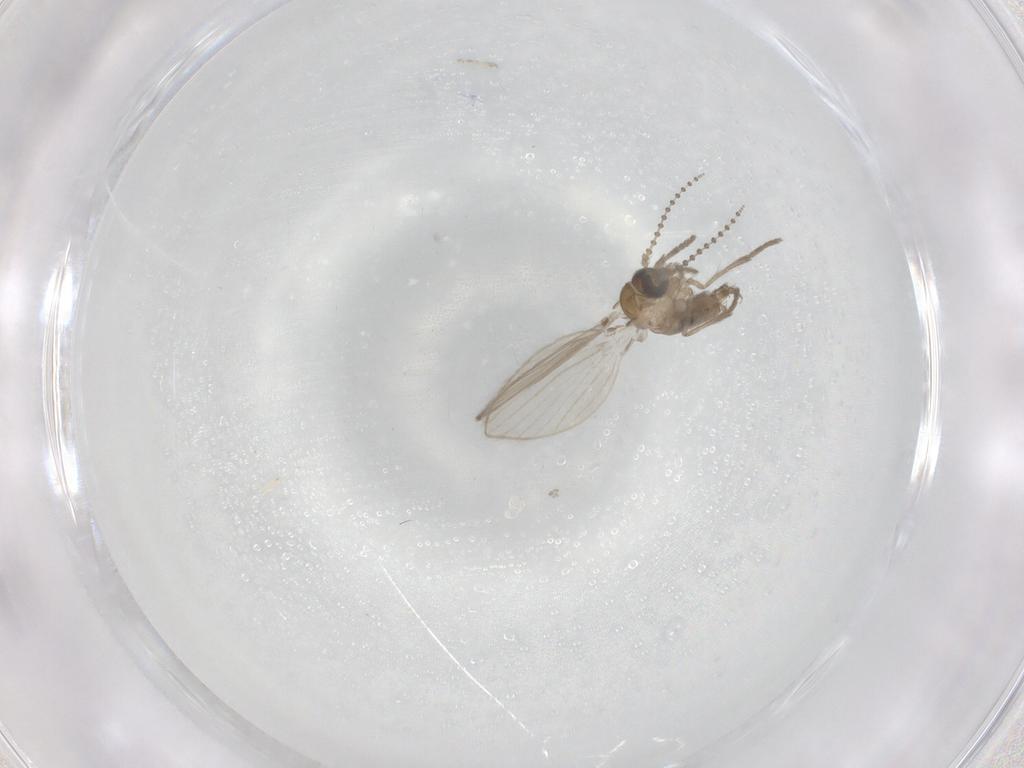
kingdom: Animalia
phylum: Arthropoda
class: Insecta
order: Diptera
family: Psychodidae
